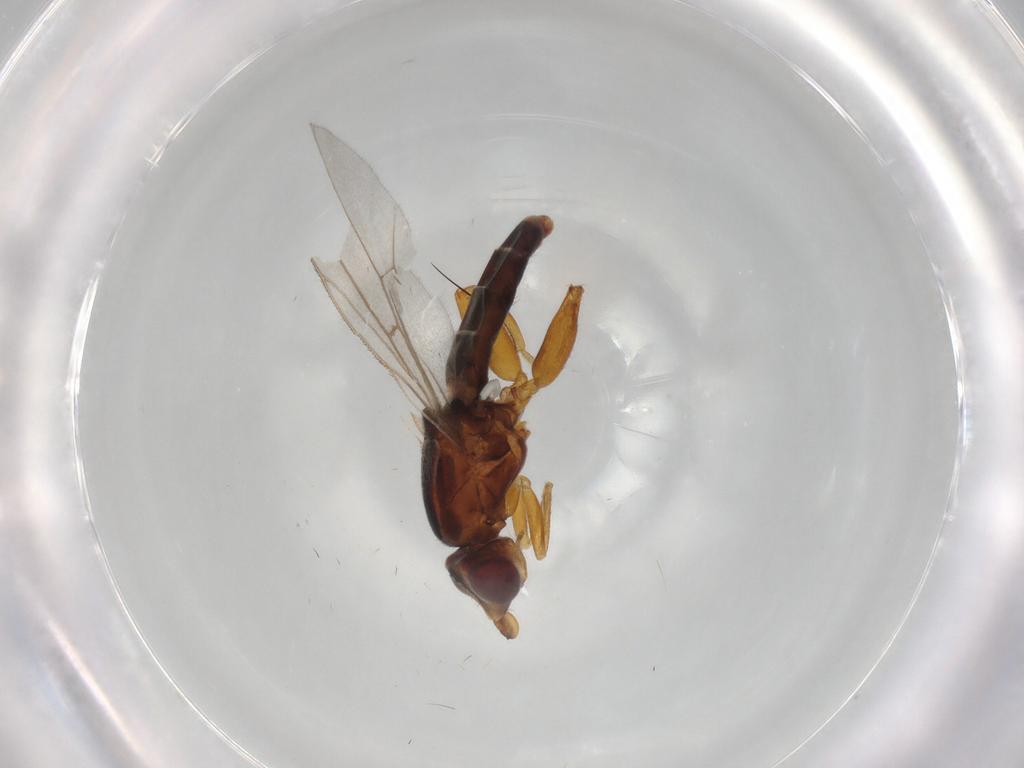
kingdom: Animalia
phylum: Arthropoda
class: Insecta
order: Diptera
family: Chloropidae
